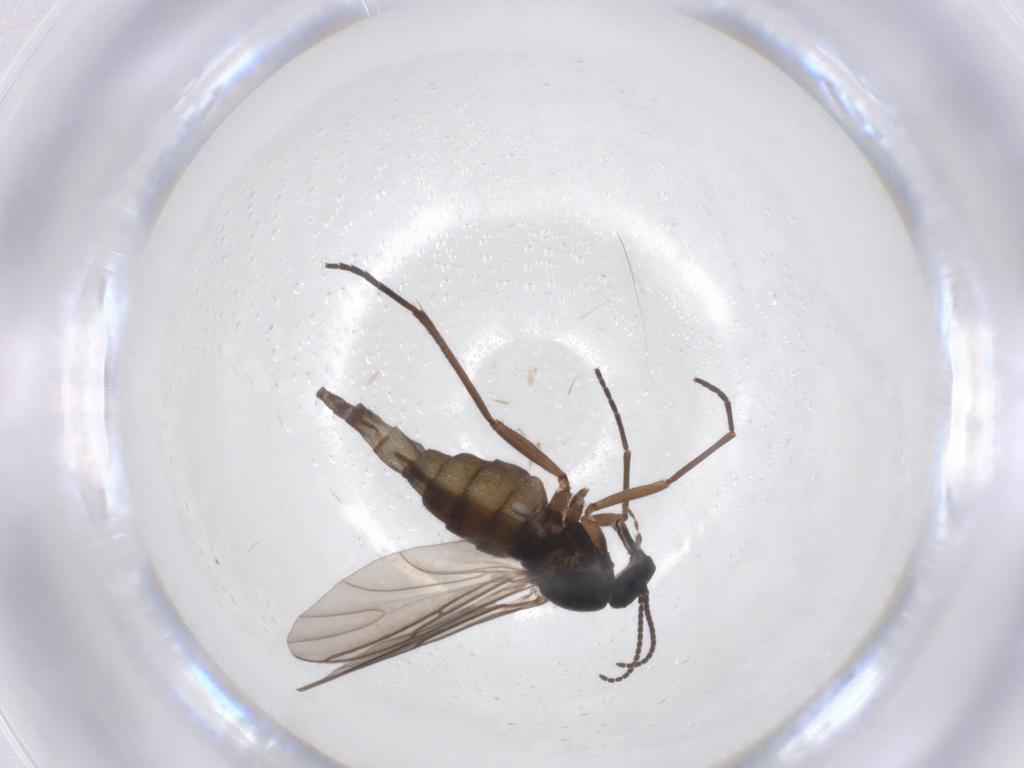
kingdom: Animalia
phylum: Arthropoda
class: Insecta
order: Diptera
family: Sciaridae
